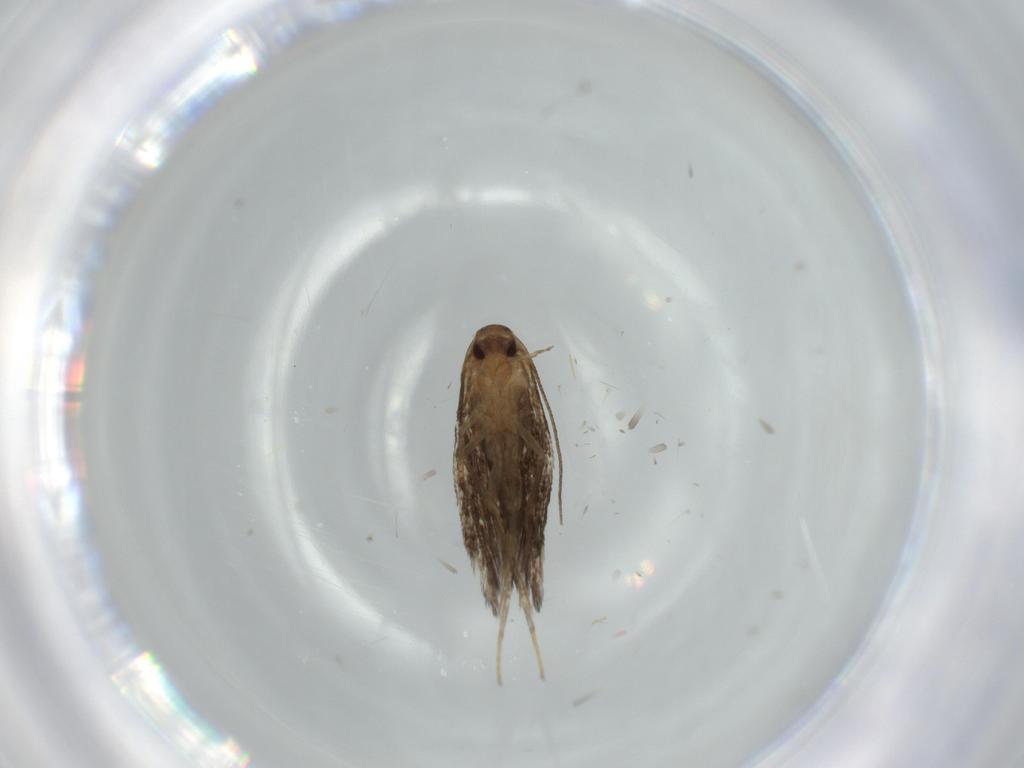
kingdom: Animalia
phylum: Arthropoda
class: Insecta
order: Lepidoptera
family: Cosmopterigidae
